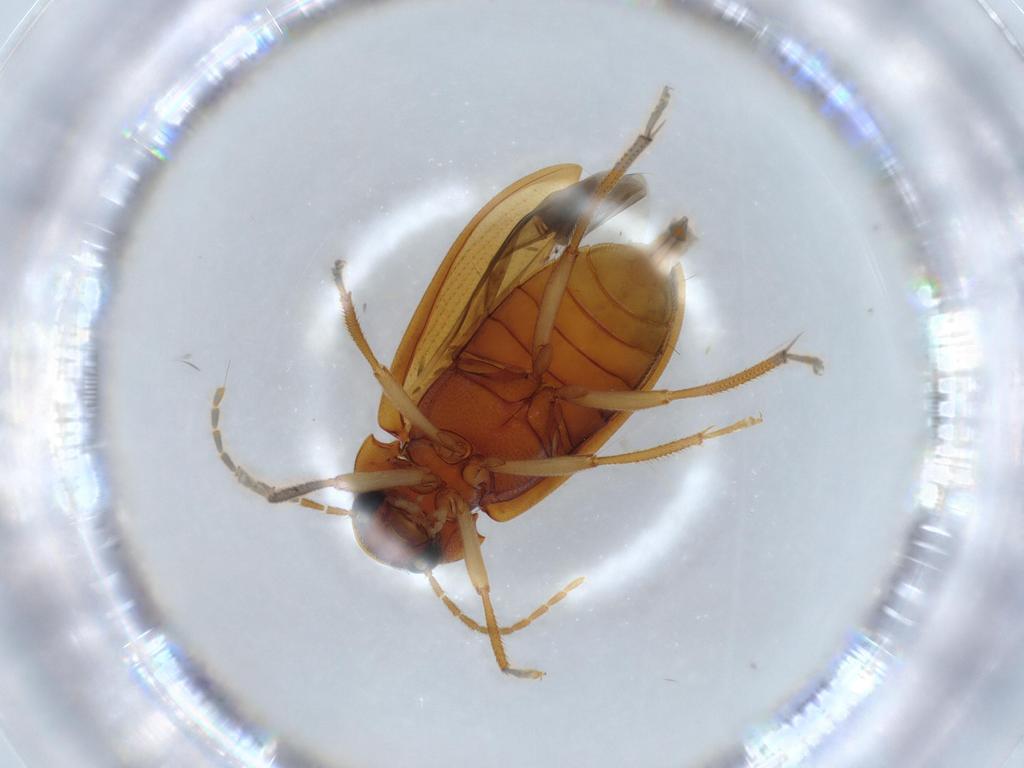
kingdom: Animalia
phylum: Arthropoda
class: Insecta
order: Coleoptera
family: Ptilodactylidae
